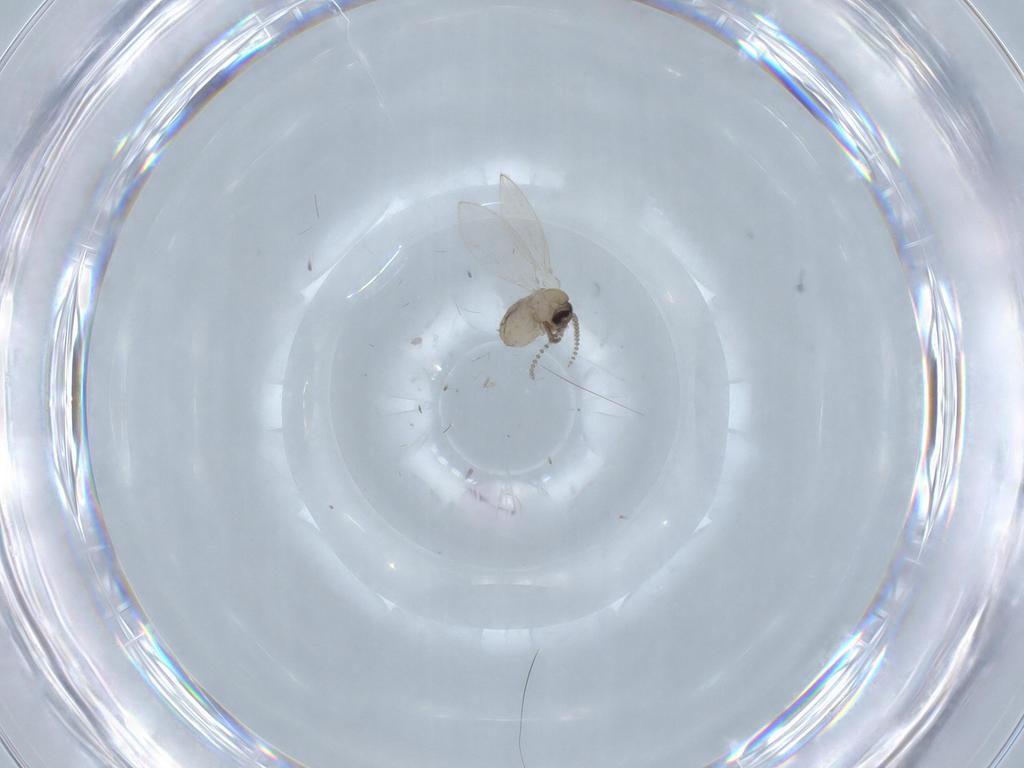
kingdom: Animalia
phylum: Arthropoda
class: Insecta
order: Diptera
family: Psychodidae
